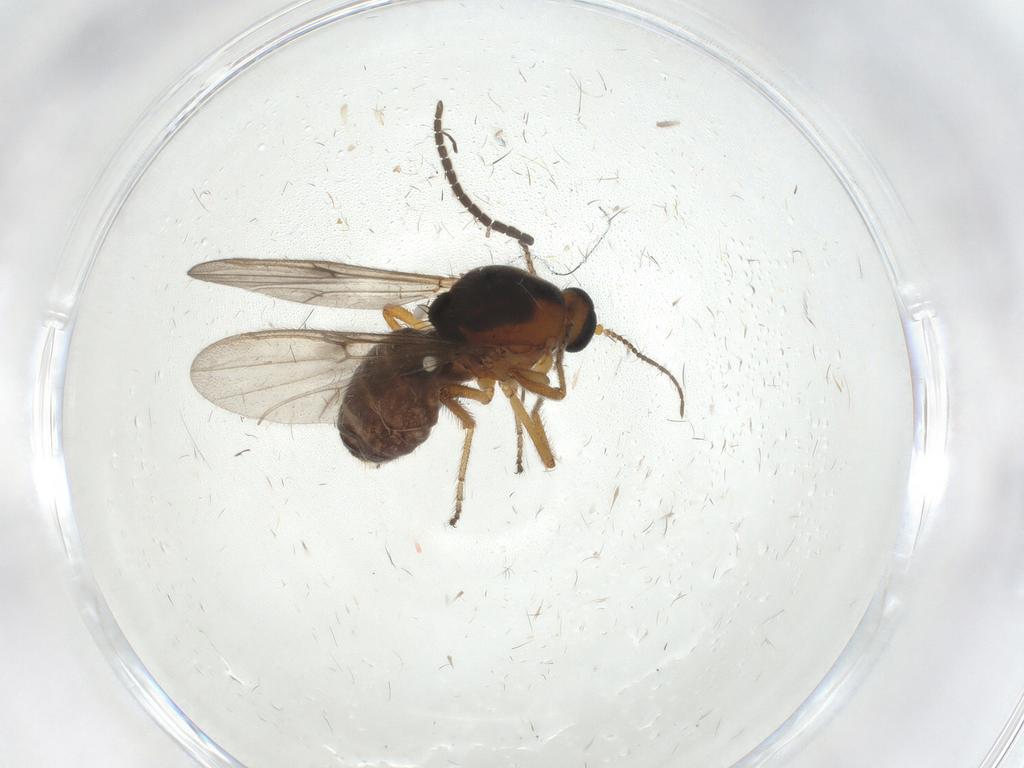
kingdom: Animalia
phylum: Arthropoda
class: Insecta
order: Diptera
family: Ceratopogonidae
